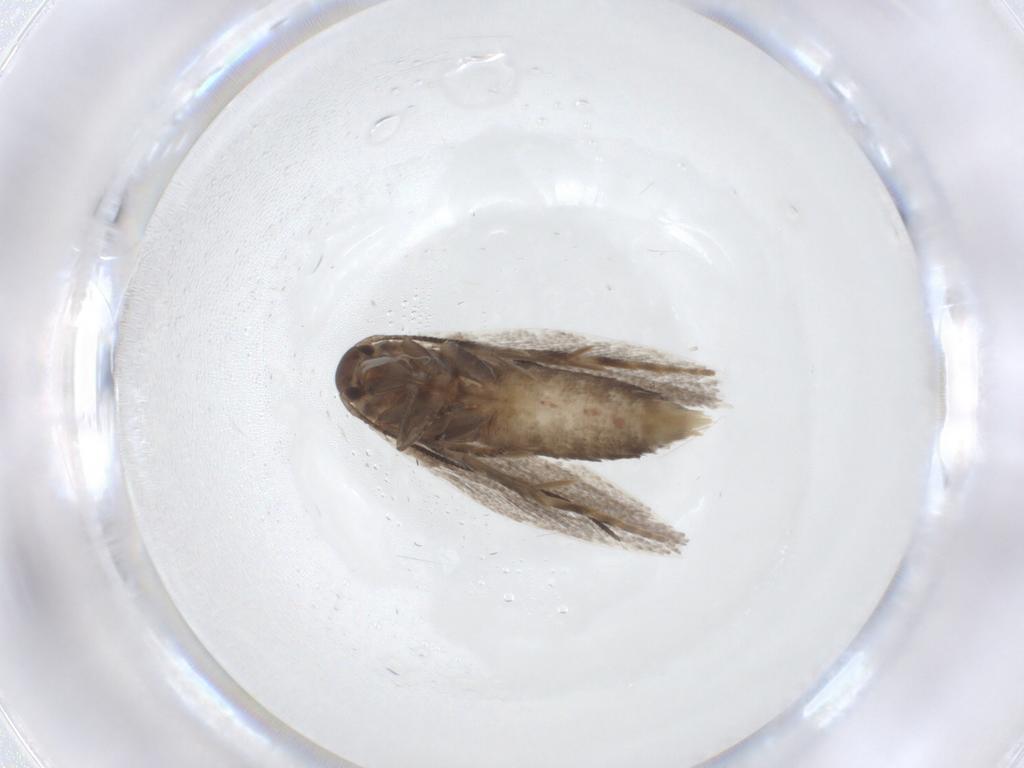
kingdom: Animalia
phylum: Arthropoda
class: Insecta
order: Lepidoptera
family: Elachistidae
